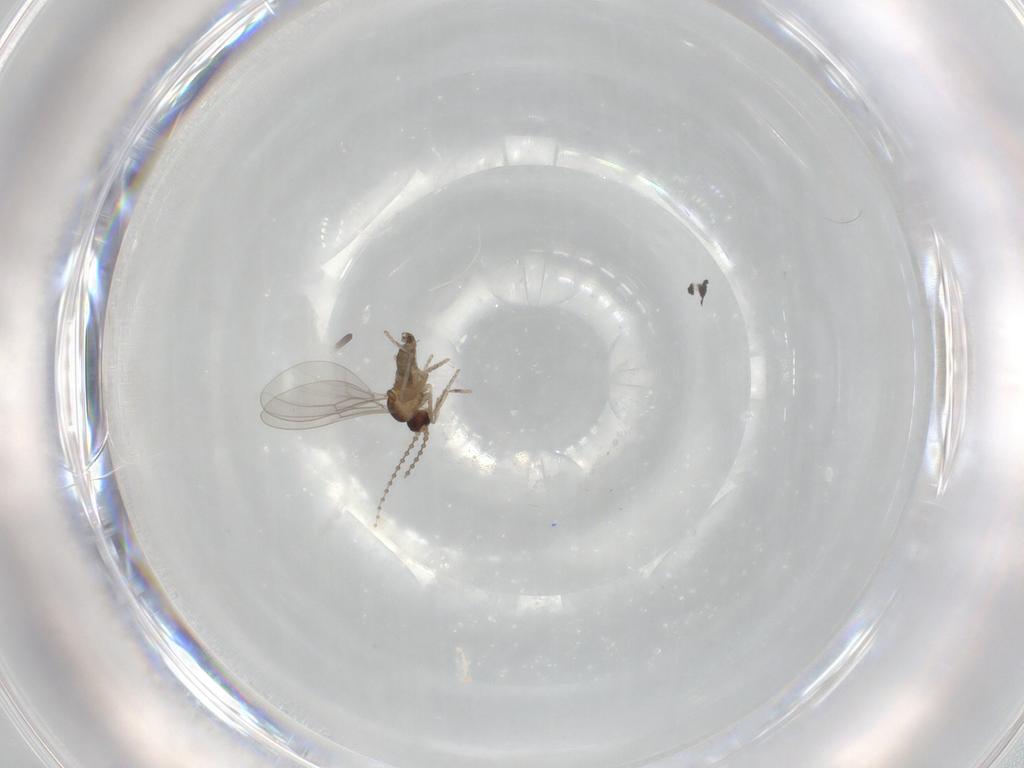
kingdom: Animalia
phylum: Arthropoda
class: Insecta
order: Diptera
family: Cecidomyiidae
